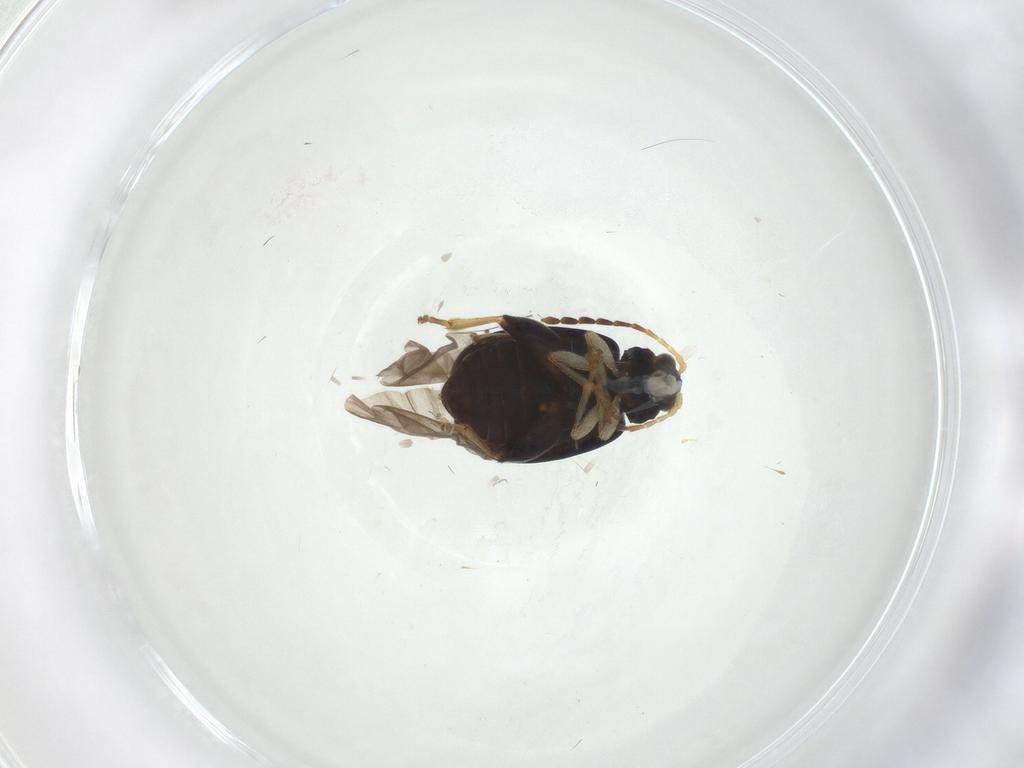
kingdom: Animalia
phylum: Arthropoda
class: Insecta
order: Coleoptera
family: Chrysomelidae
